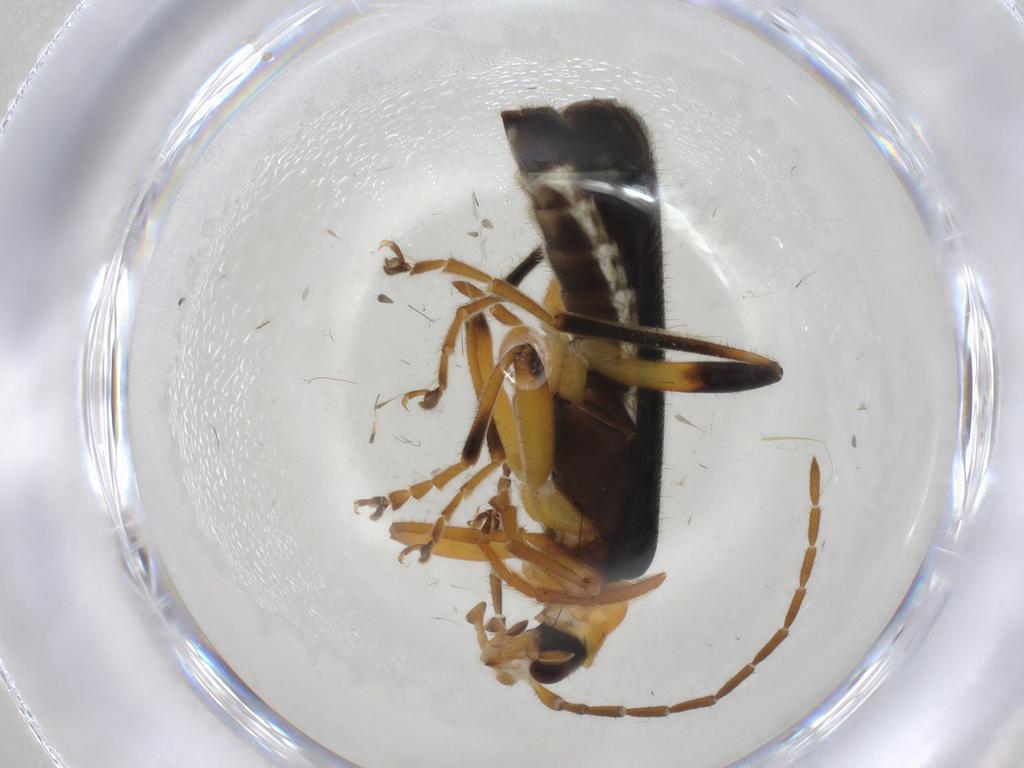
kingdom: Animalia
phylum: Arthropoda
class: Insecta
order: Coleoptera
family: Cantharidae
